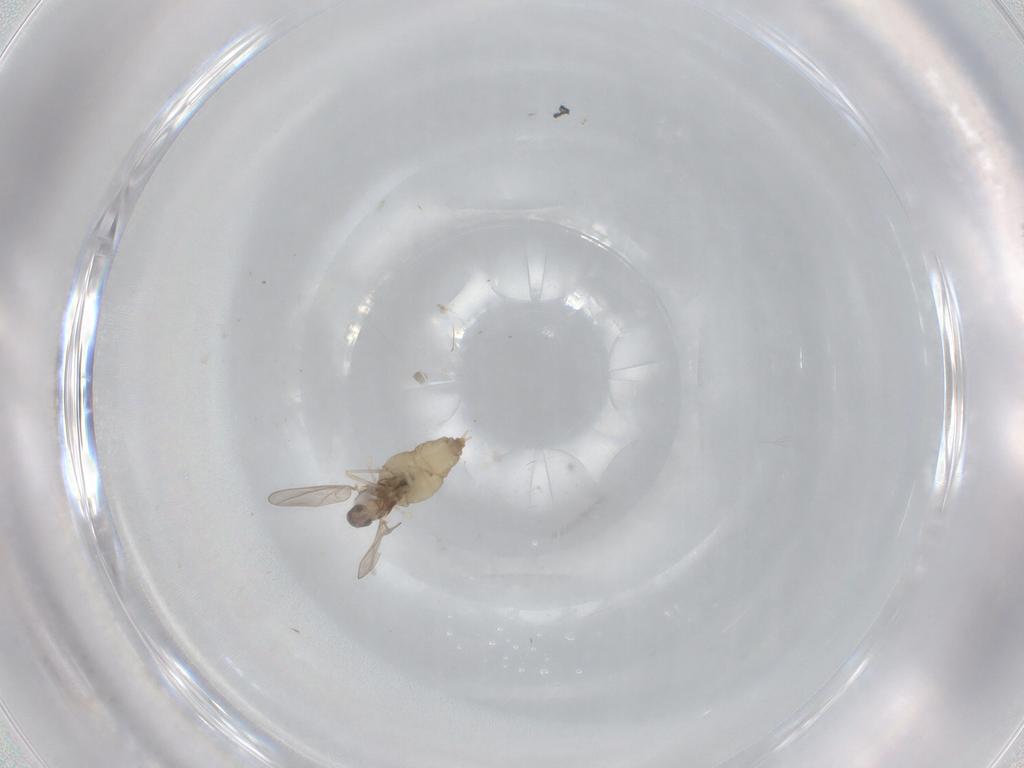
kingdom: Animalia
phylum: Arthropoda
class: Insecta
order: Diptera
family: Cecidomyiidae
